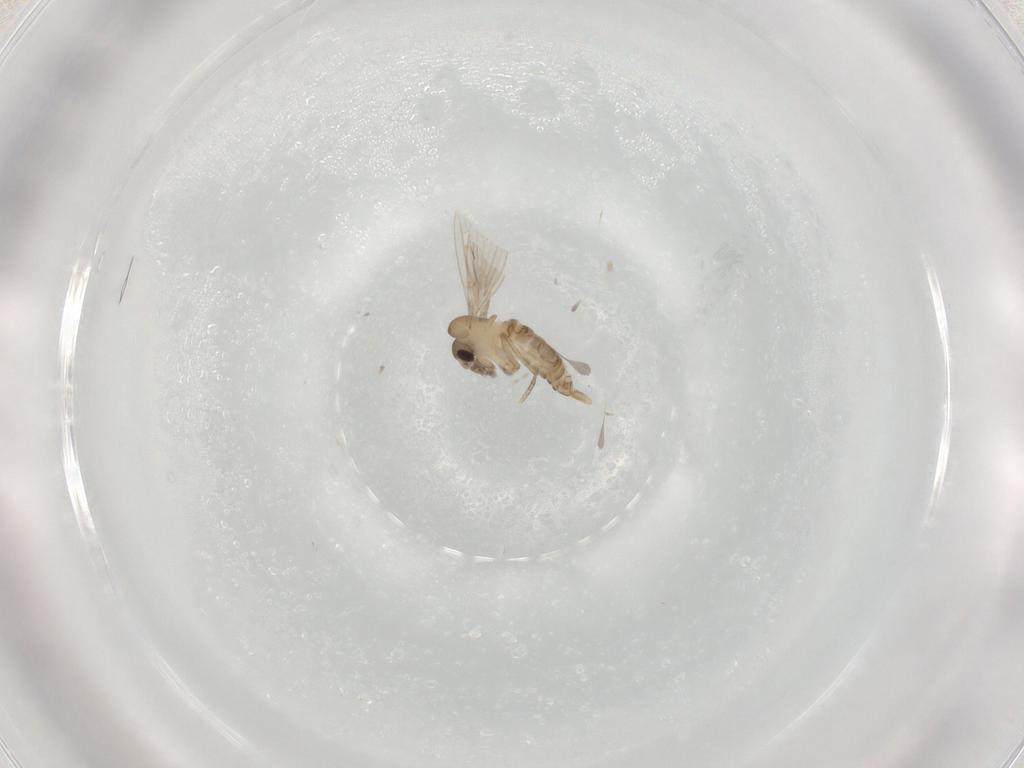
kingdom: Animalia
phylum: Arthropoda
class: Insecta
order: Diptera
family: Cecidomyiidae
